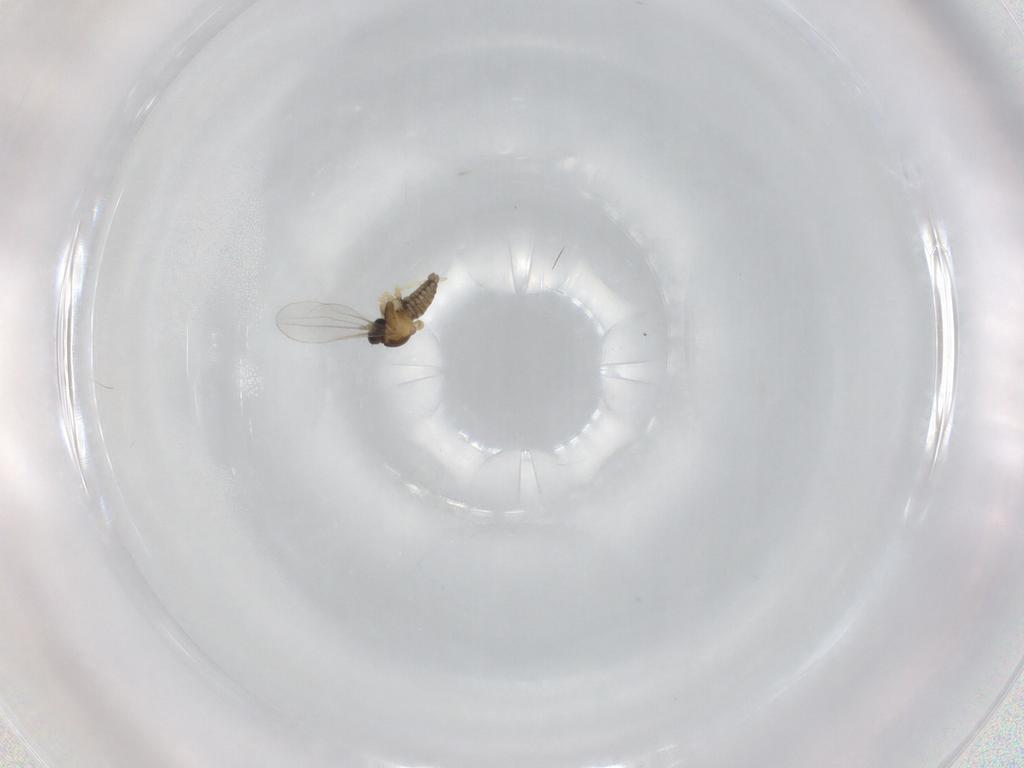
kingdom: Animalia
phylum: Arthropoda
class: Insecta
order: Diptera
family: Cecidomyiidae
